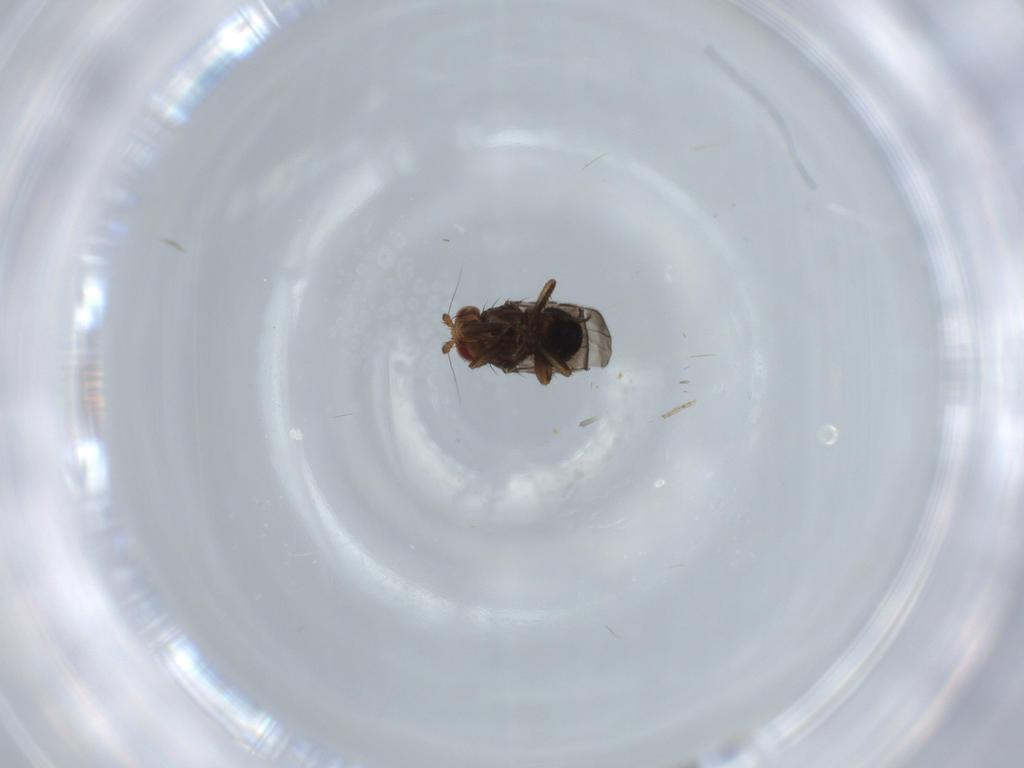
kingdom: Animalia
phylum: Arthropoda
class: Insecta
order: Diptera
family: Sphaeroceridae
